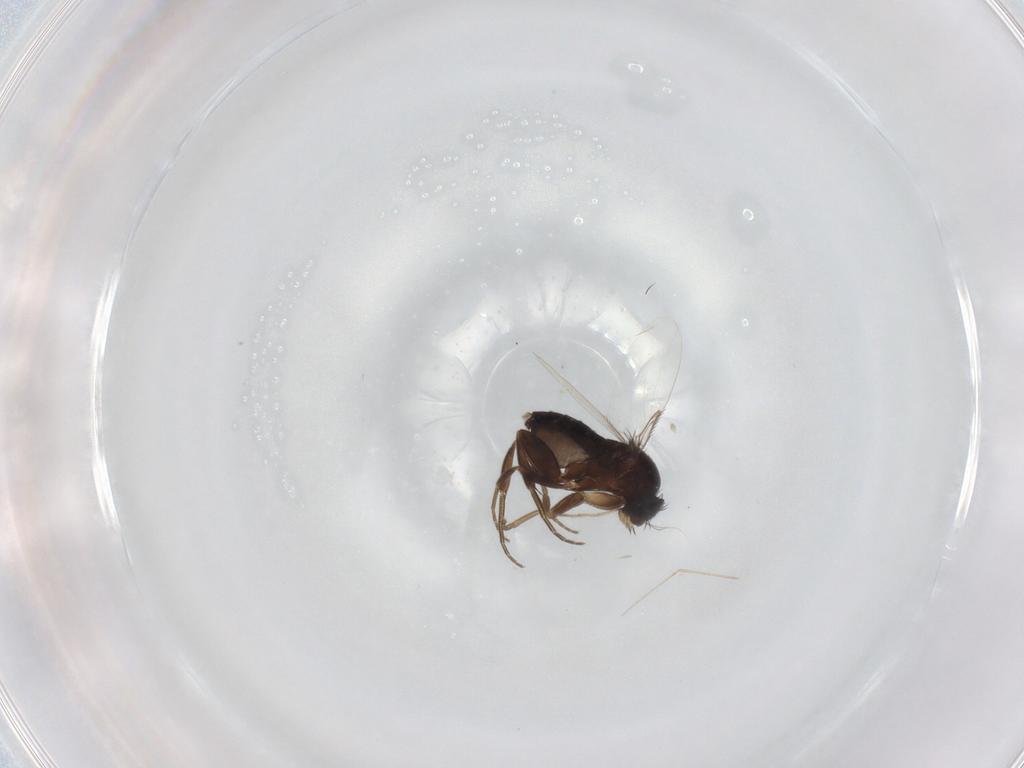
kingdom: Animalia
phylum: Arthropoda
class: Insecta
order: Diptera
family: Phoridae
